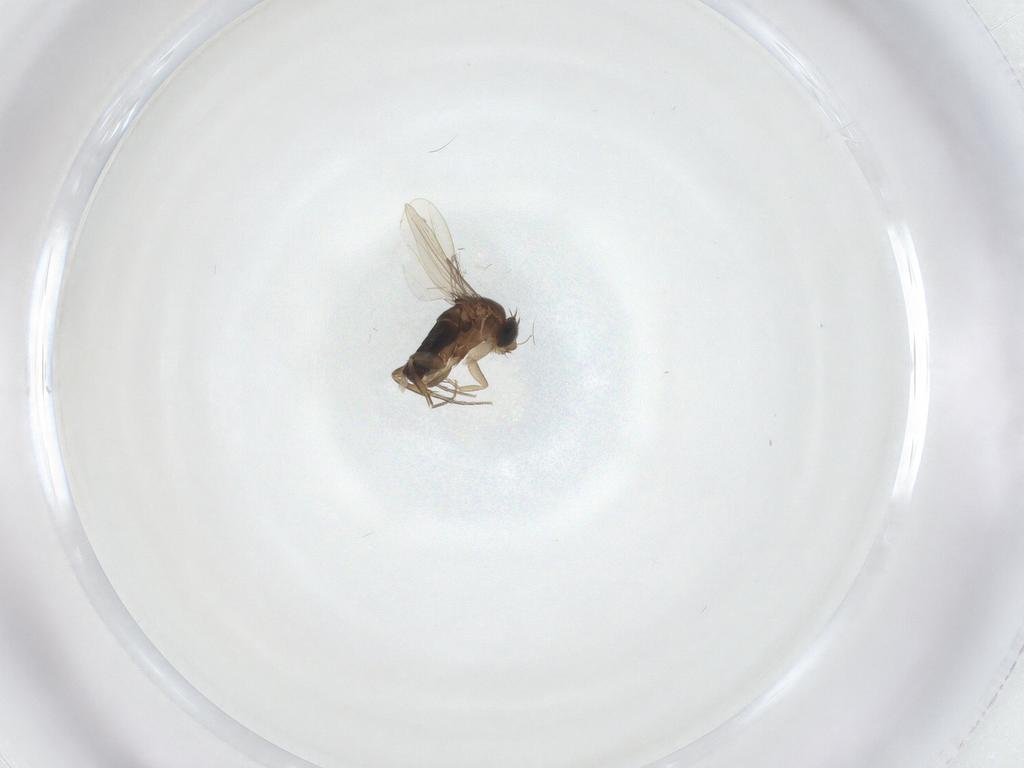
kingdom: Animalia
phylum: Arthropoda
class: Insecta
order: Diptera
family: Phoridae
